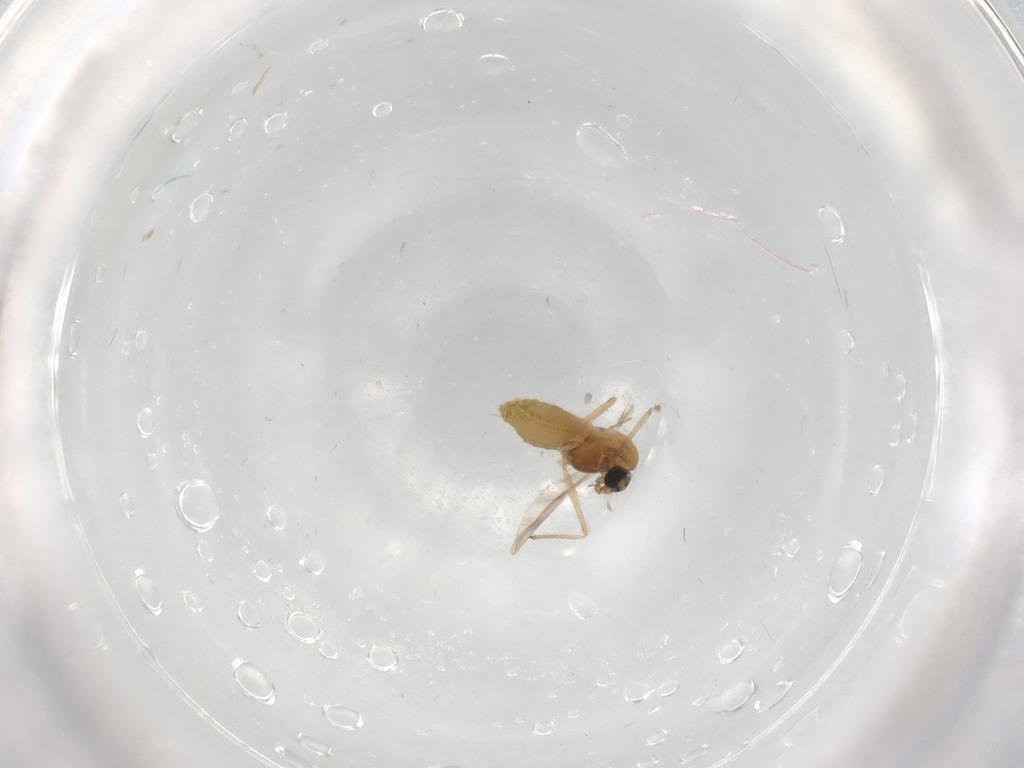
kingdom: Animalia
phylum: Arthropoda
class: Insecta
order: Diptera
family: Chironomidae
